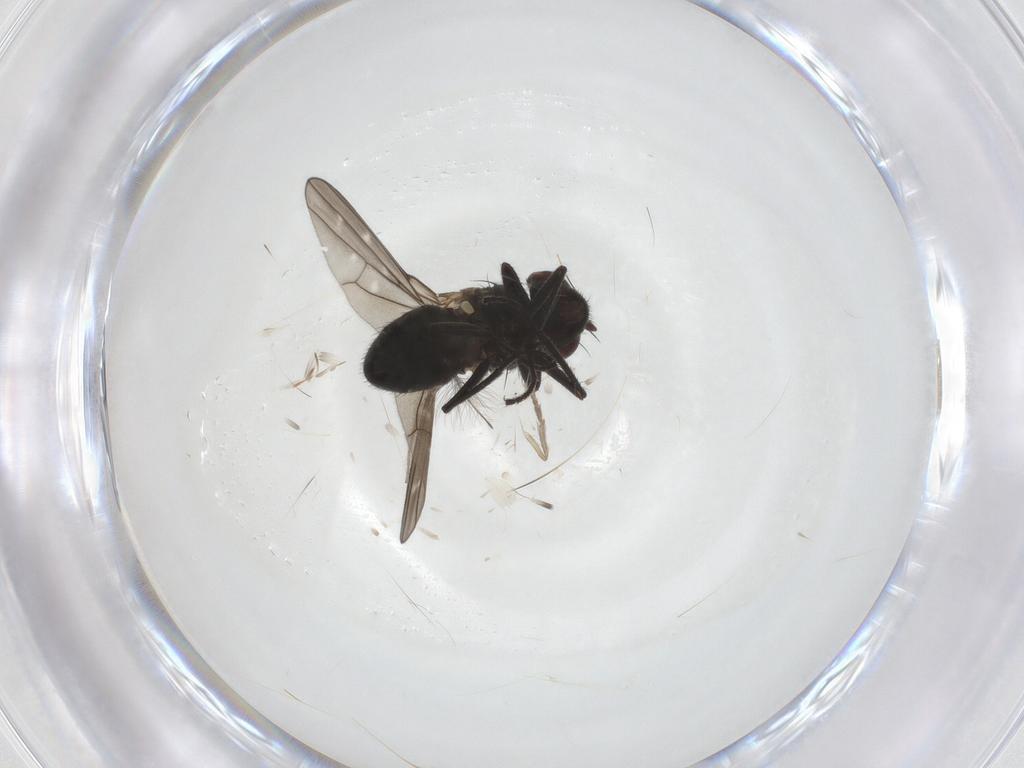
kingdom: Animalia
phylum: Arthropoda
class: Insecta
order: Diptera
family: Ephydridae
